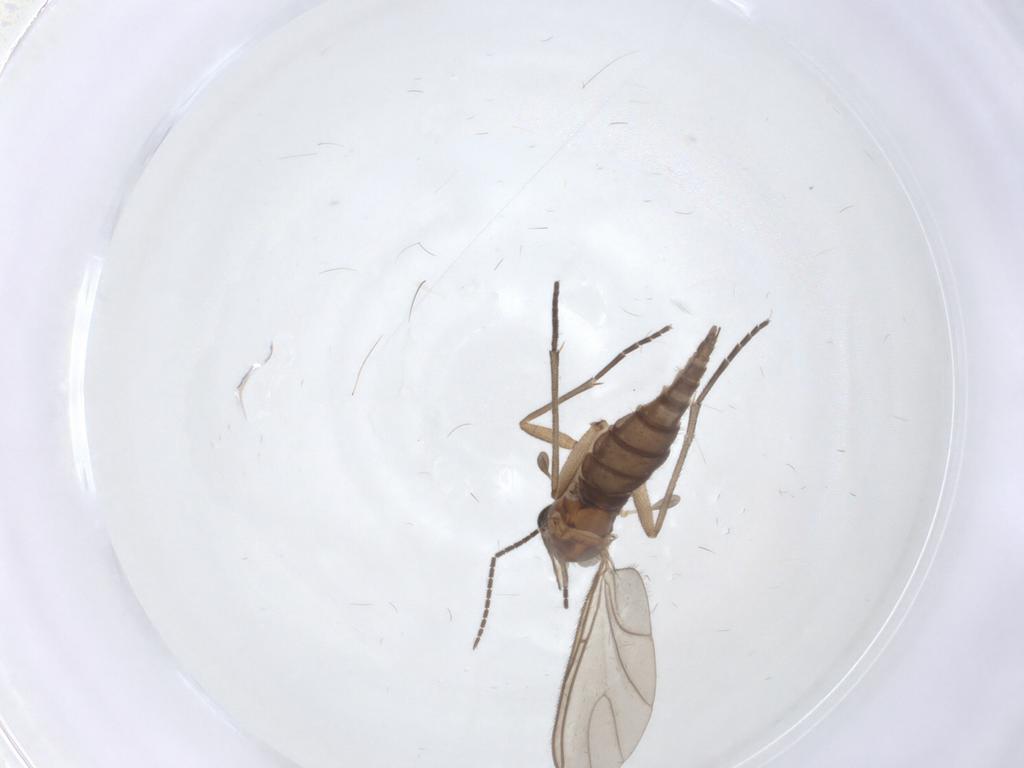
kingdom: Animalia
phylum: Arthropoda
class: Insecta
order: Diptera
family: Sciaridae
